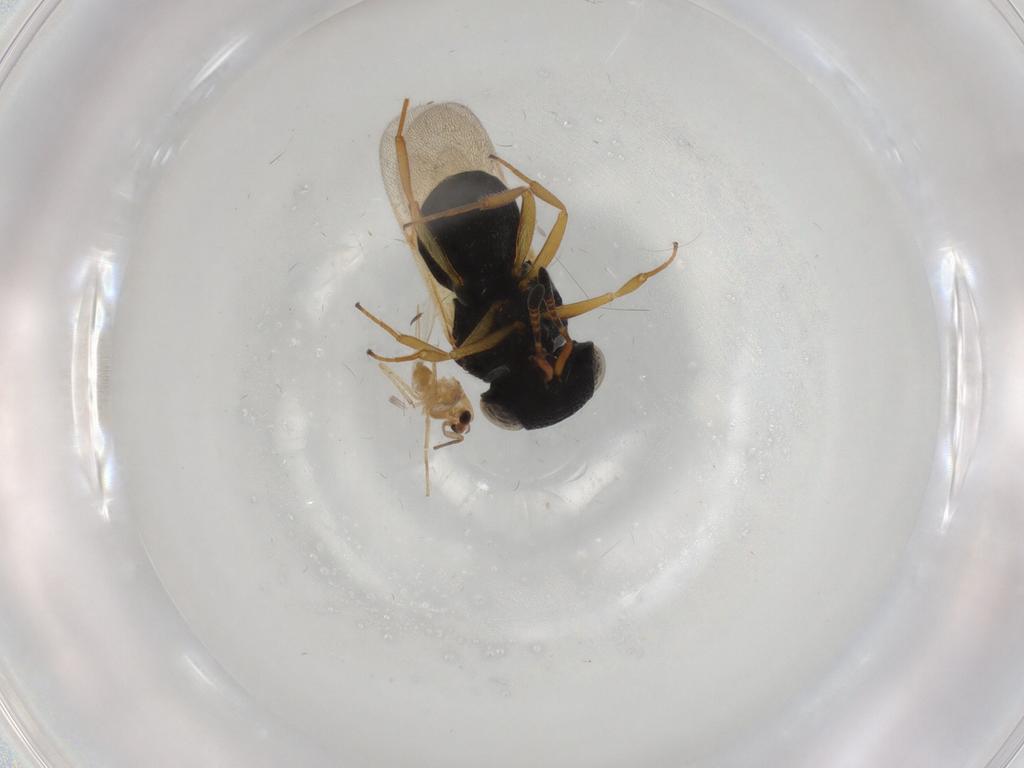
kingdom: Animalia
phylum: Arthropoda
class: Insecta
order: Hymenoptera
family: Scelionidae
